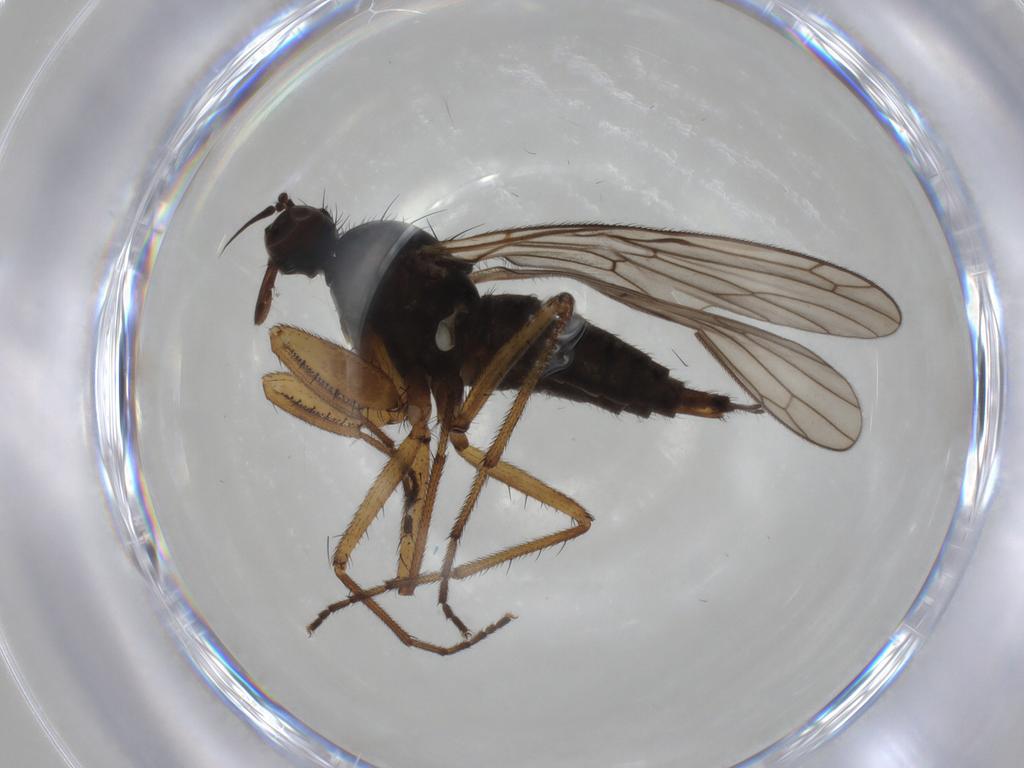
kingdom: Animalia
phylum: Arthropoda
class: Insecta
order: Diptera
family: Cecidomyiidae
